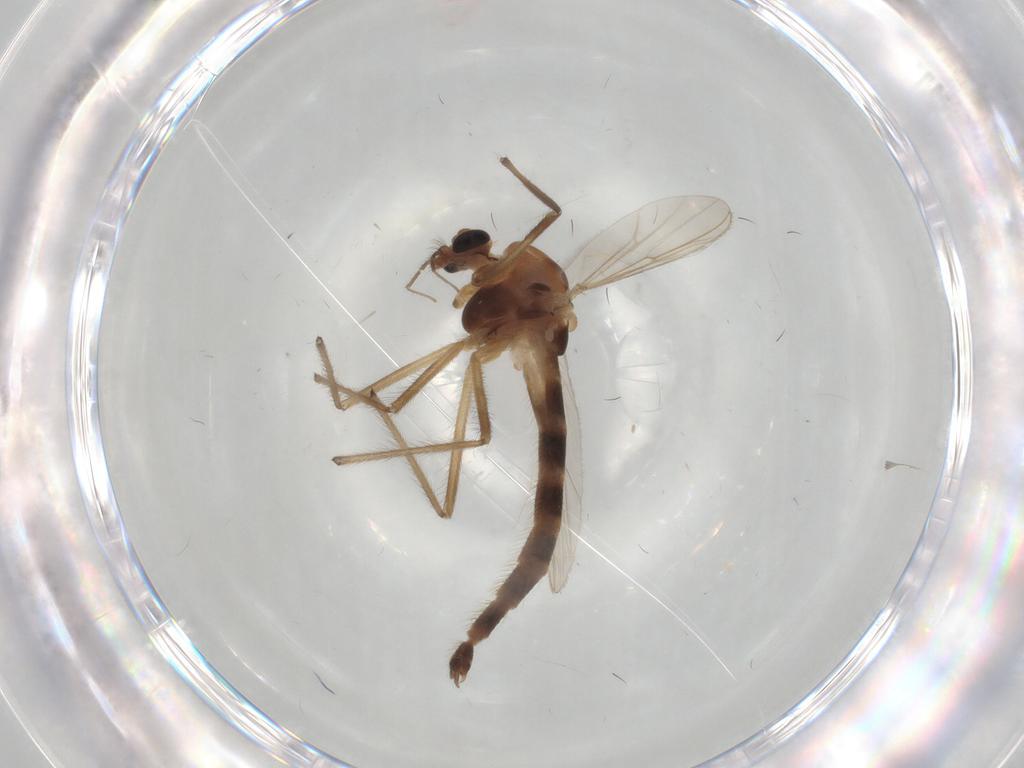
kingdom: Animalia
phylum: Arthropoda
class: Insecta
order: Diptera
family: Chironomidae
